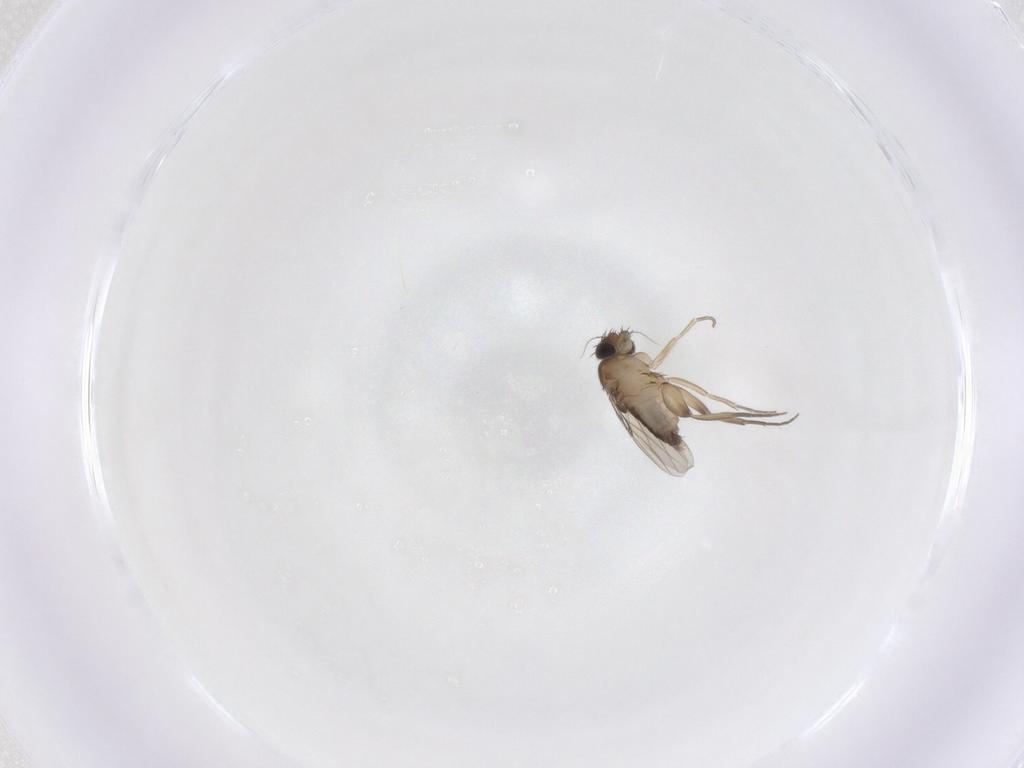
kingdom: Animalia
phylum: Arthropoda
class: Insecta
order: Diptera
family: Phoridae
